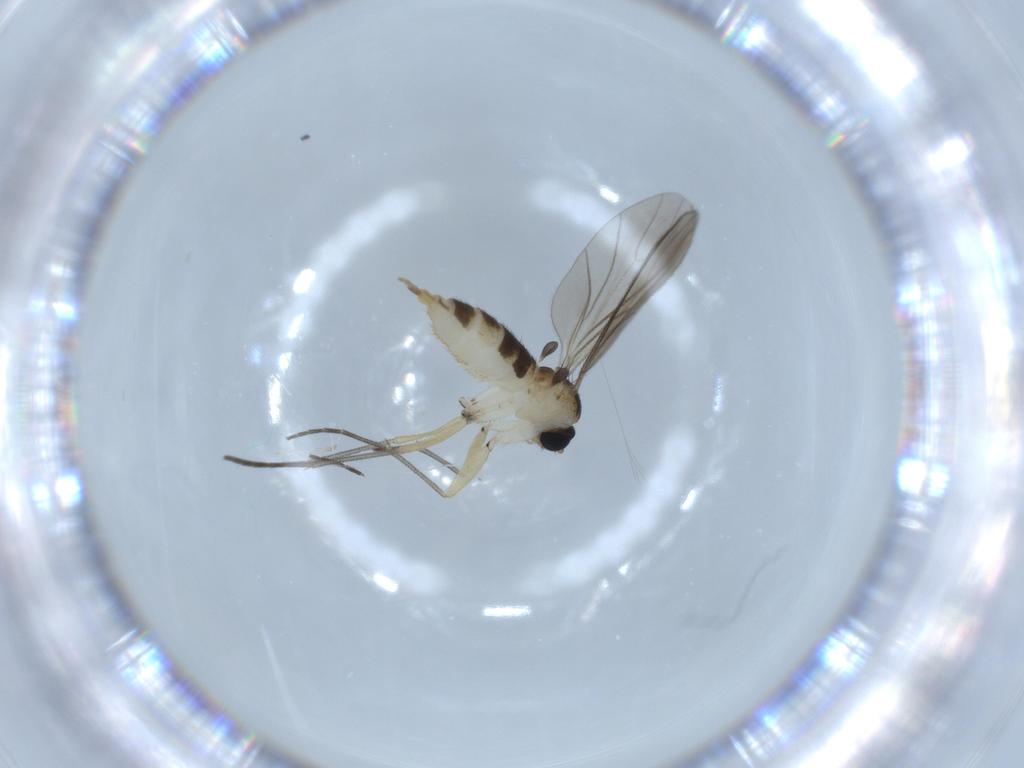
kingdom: Animalia
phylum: Arthropoda
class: Insecta
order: Diptera
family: Sciaridae
